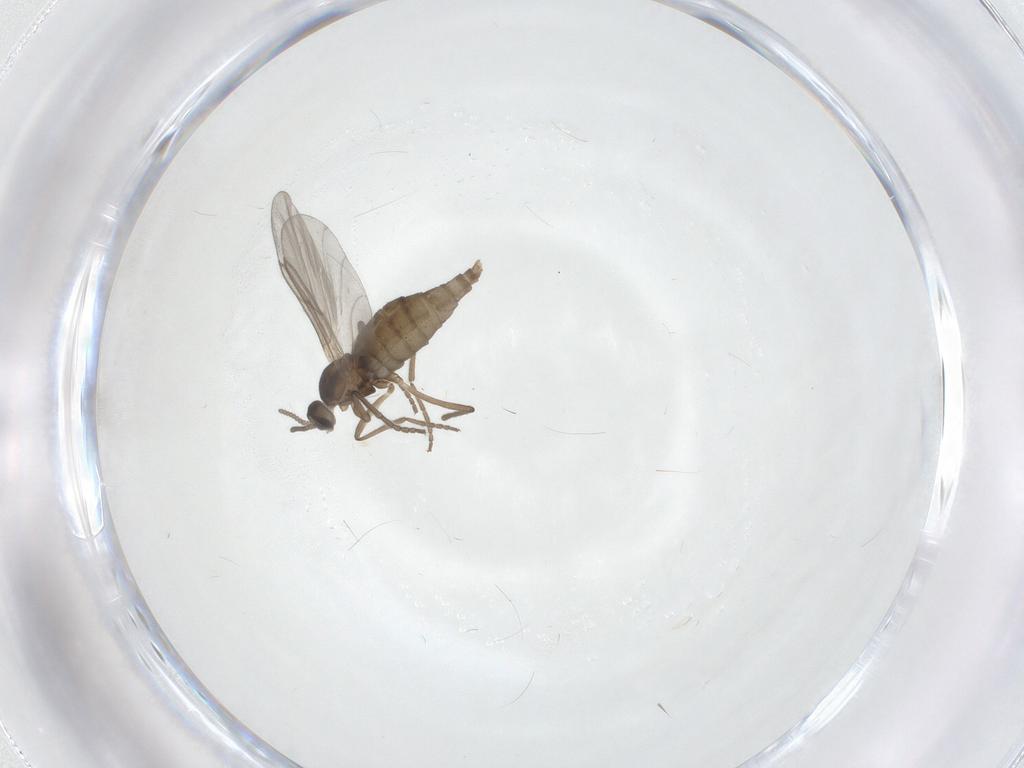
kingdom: Animalia
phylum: Arthropoda
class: Insecta
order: Diptera
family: Cecidomyiidae
